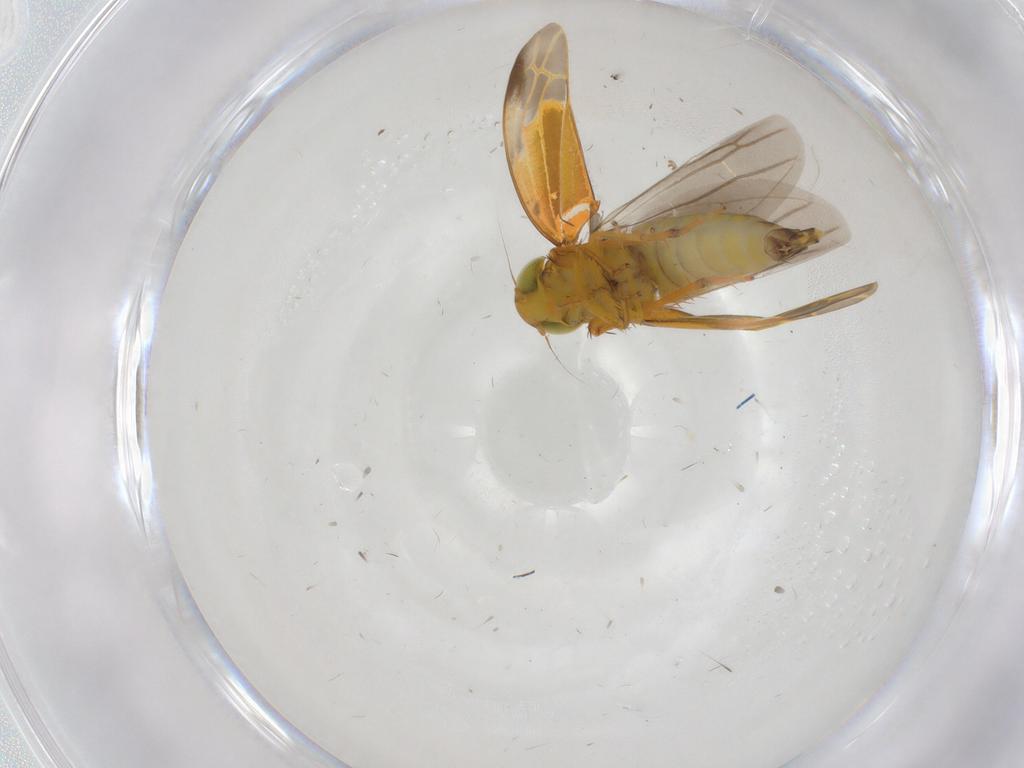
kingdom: Animalia
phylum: Arthropoda
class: Insecta
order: Hemiptera
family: Cicadellidae
